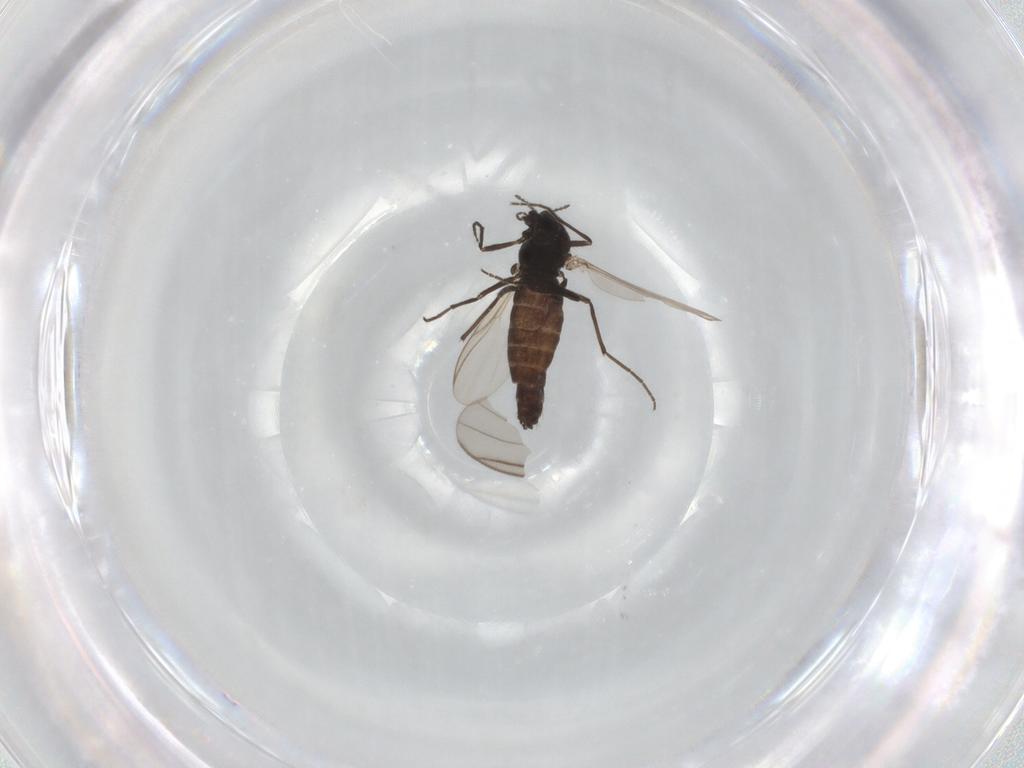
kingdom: Animalia
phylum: Arthropoda
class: Insecta
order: Diptera
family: Chironomidae
